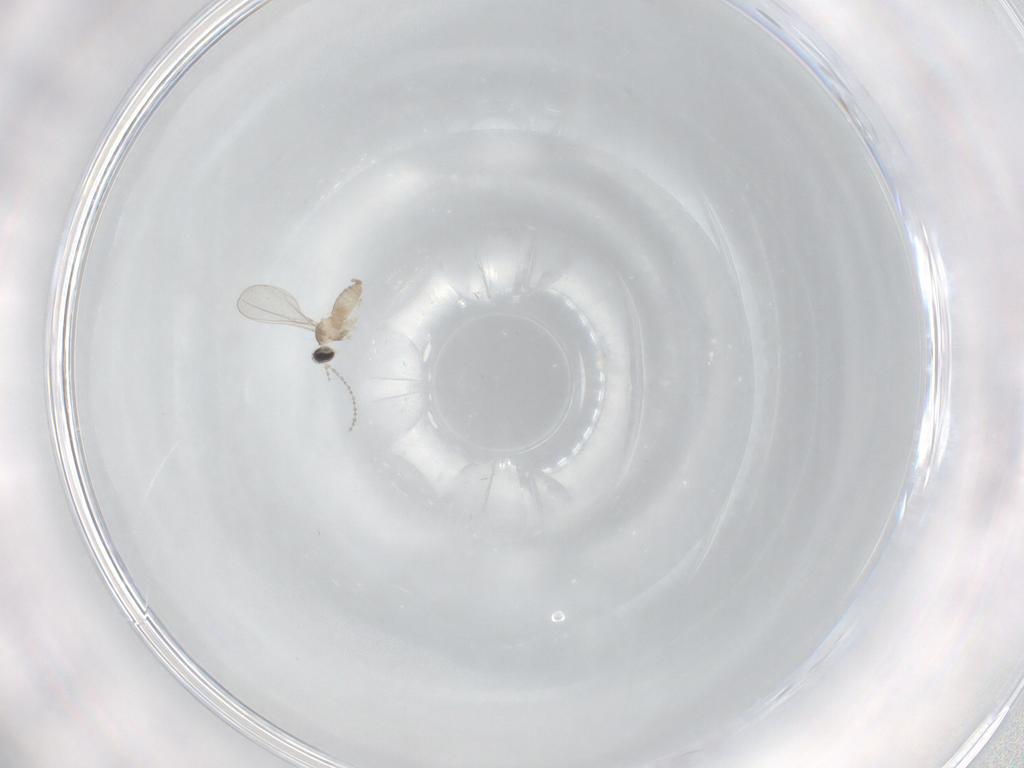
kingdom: Animalia
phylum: Arthropoda
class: Insecta
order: Diptera
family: Cecidomyiidae
